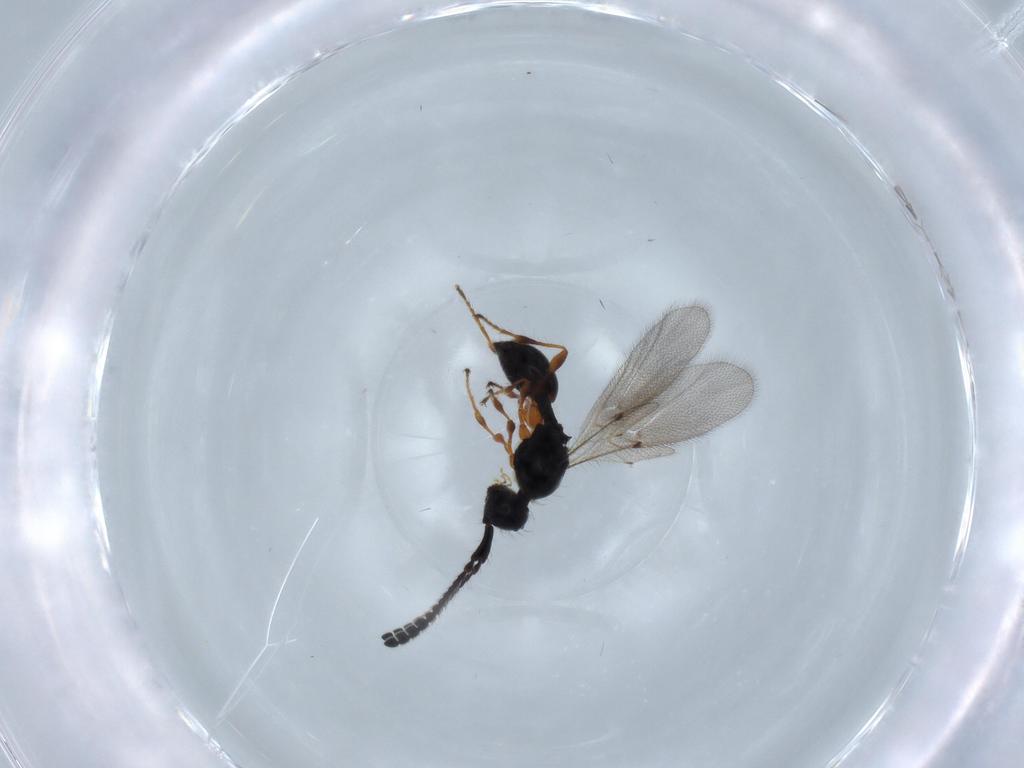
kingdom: Animalia
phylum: Arthropoda
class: Insecta
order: Hymenoptera
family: Diapriidae
